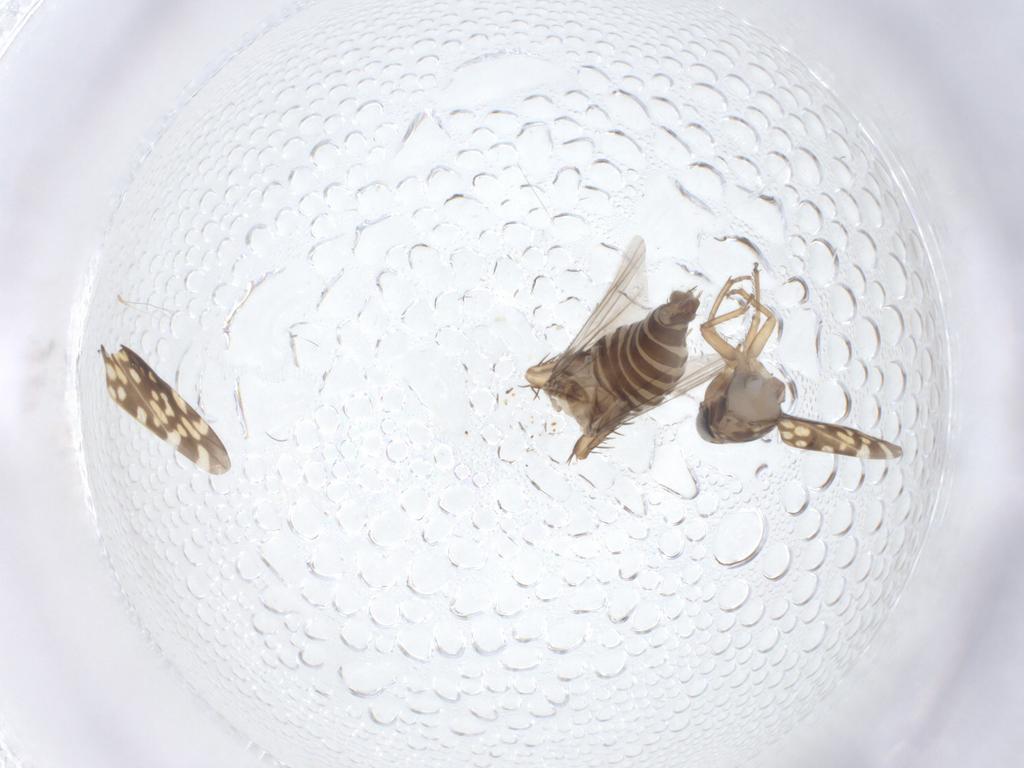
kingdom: Animalia
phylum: Arthropoda
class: Insecta
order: Hemiptera
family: Cicadellidae
